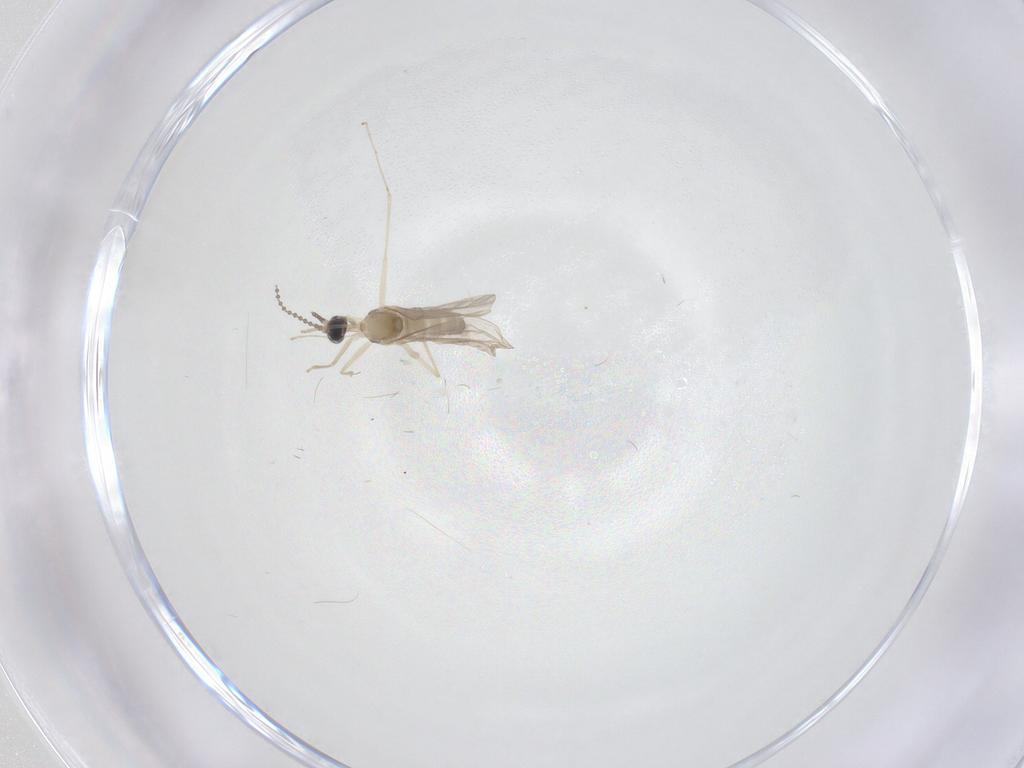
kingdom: Animalia
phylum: Arthropoda
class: Insecta
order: Diptera
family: Cecidomyiidae
